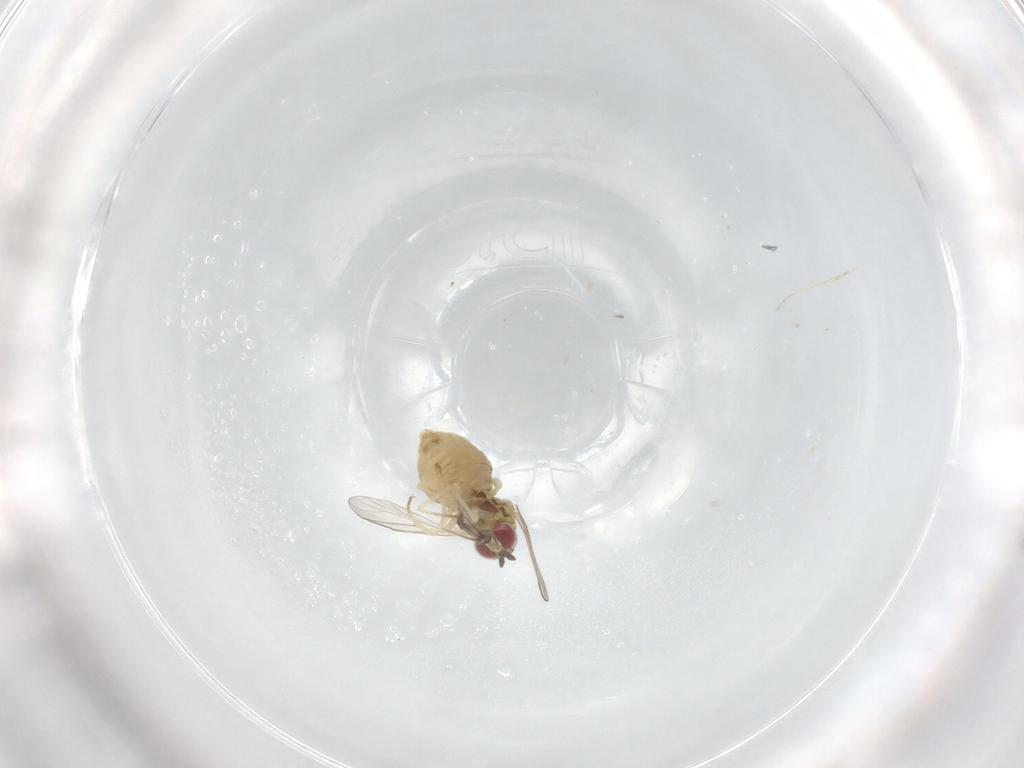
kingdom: Animalia
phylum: Arthropoda
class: Insecta
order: Diptera
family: Bombyliidae
